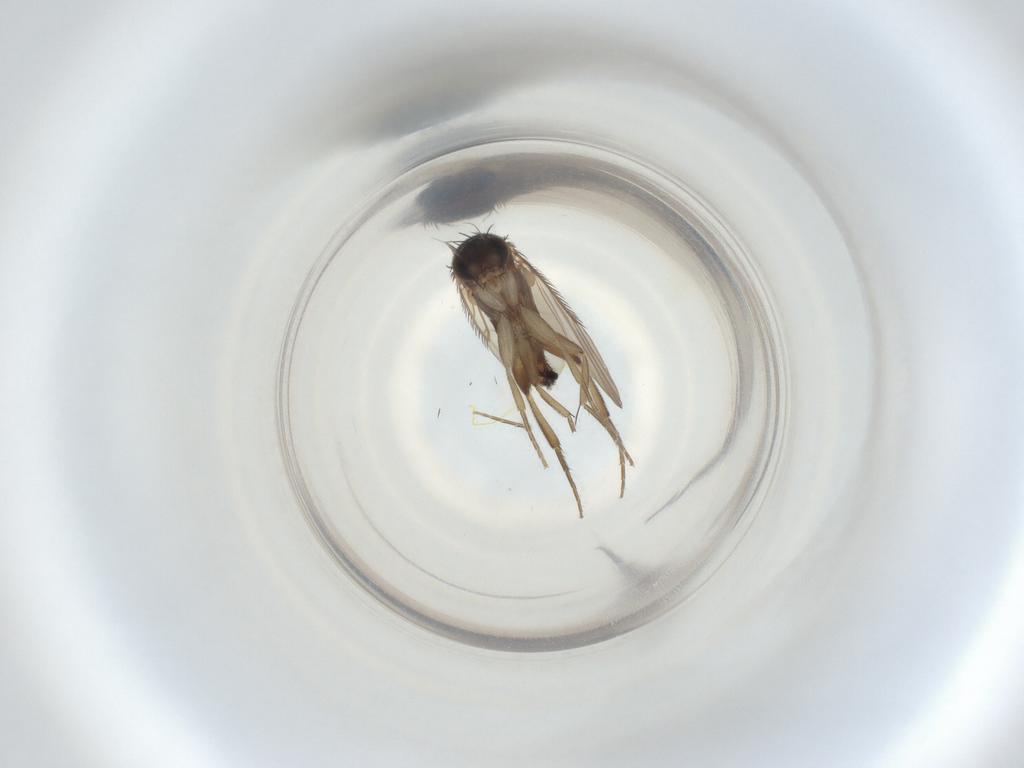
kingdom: Animalia
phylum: Arthropoda
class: Insecta
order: Diptera
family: Phoridae
